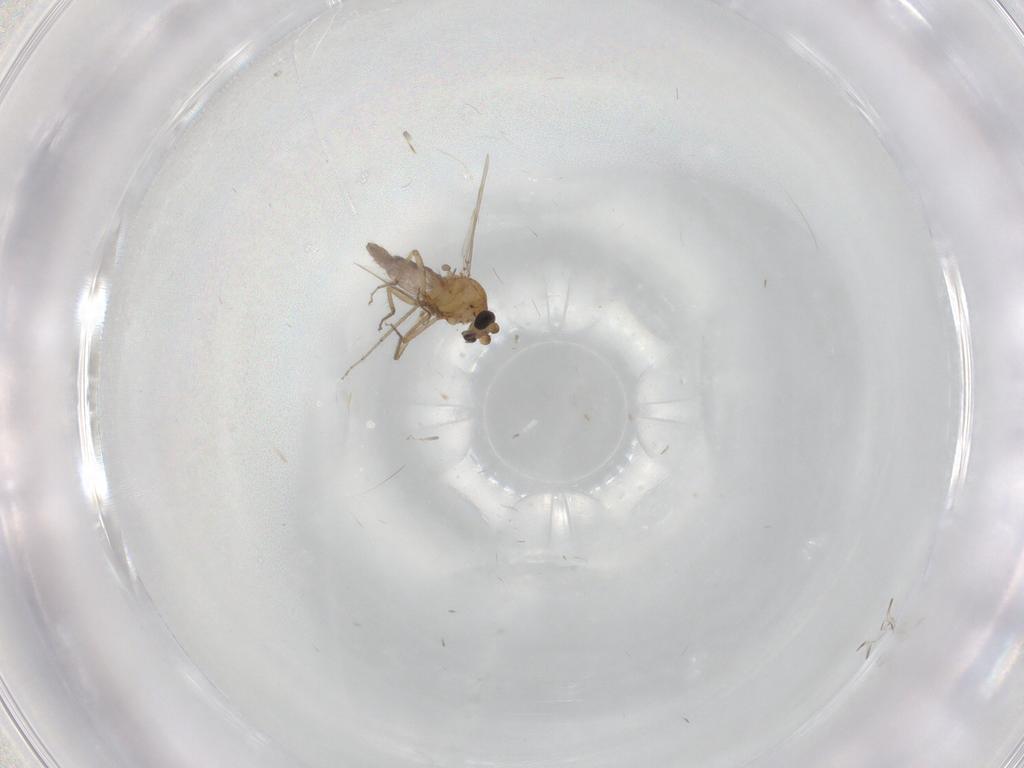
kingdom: Animalia
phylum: Arthropoda
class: Insecta
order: Diptera
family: Ceratopogonidae
